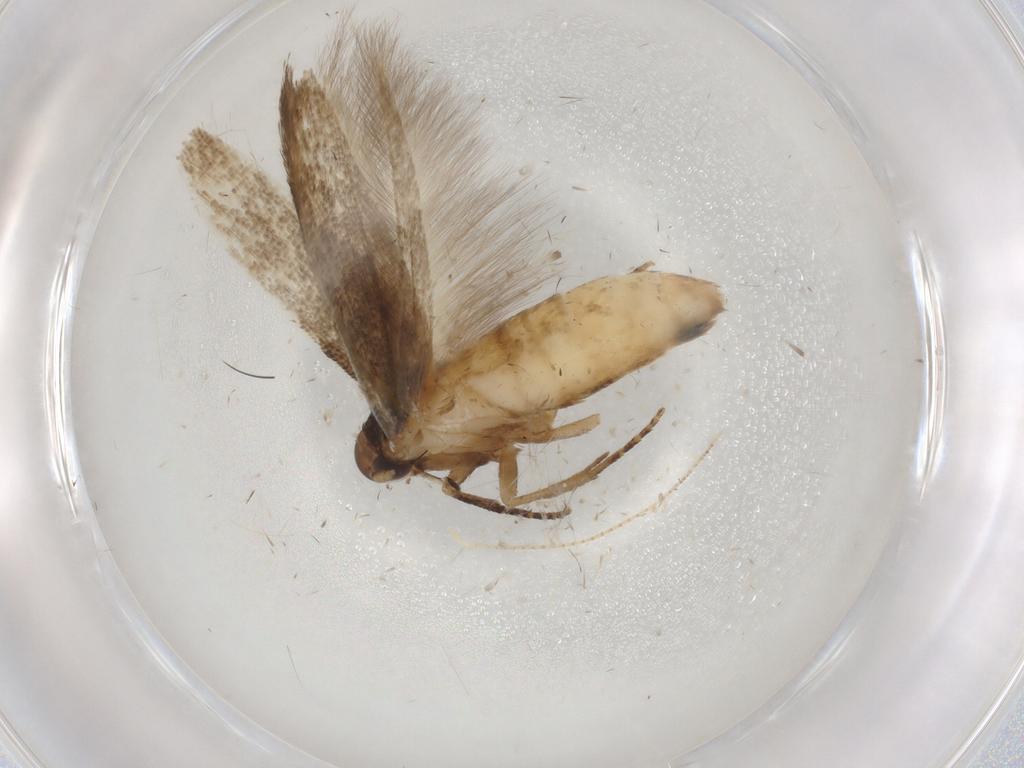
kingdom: Animalia
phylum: Arthropoda
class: Insecta
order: Lepidoptera
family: Cosmopterigidae
